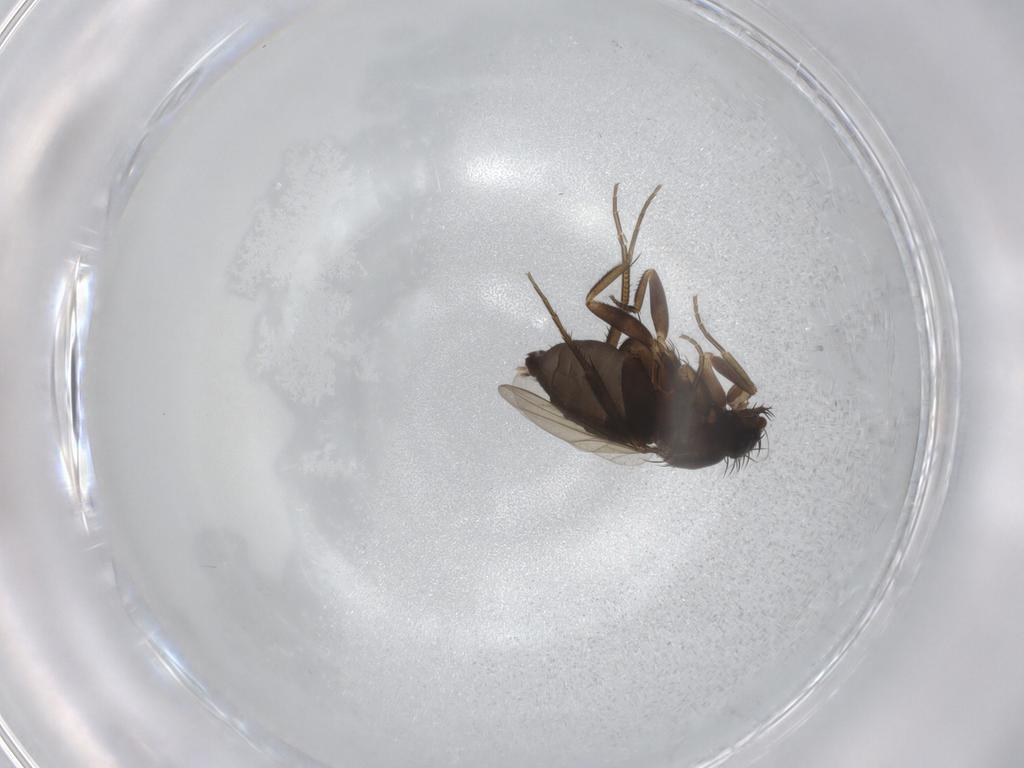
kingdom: Animalia
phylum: Arthropoda
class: Insecta
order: Diptera
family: Phoridae
